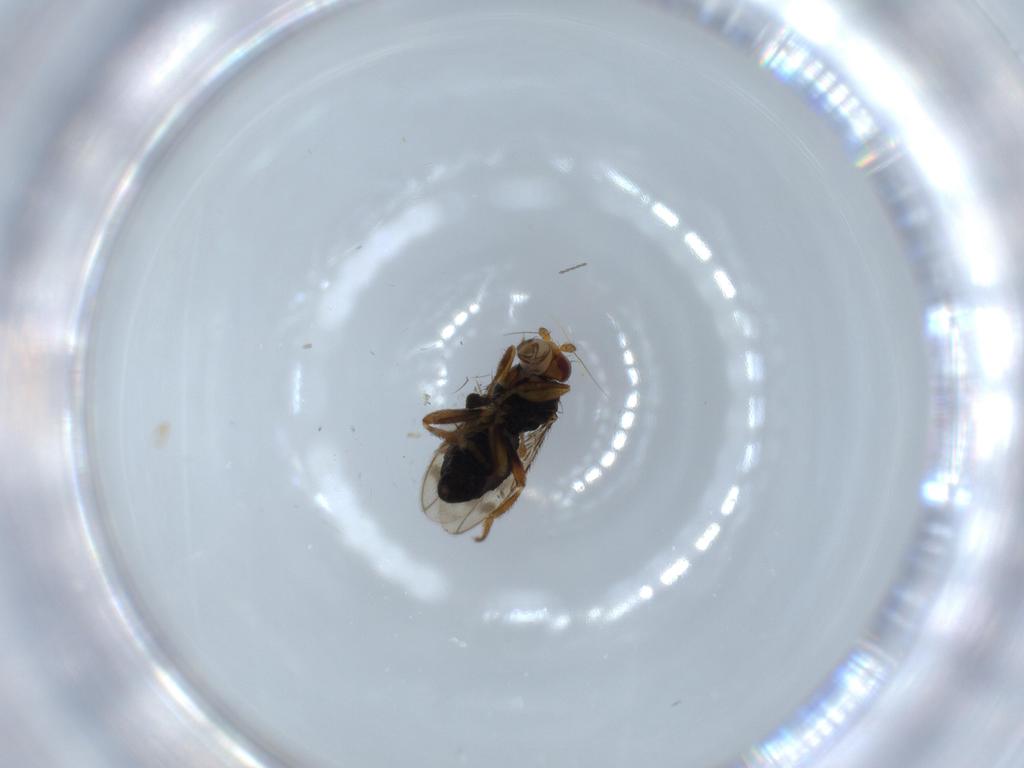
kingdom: Animalia
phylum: Arthropoda
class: Insecta
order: Diptera
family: Sphaeroceridae
